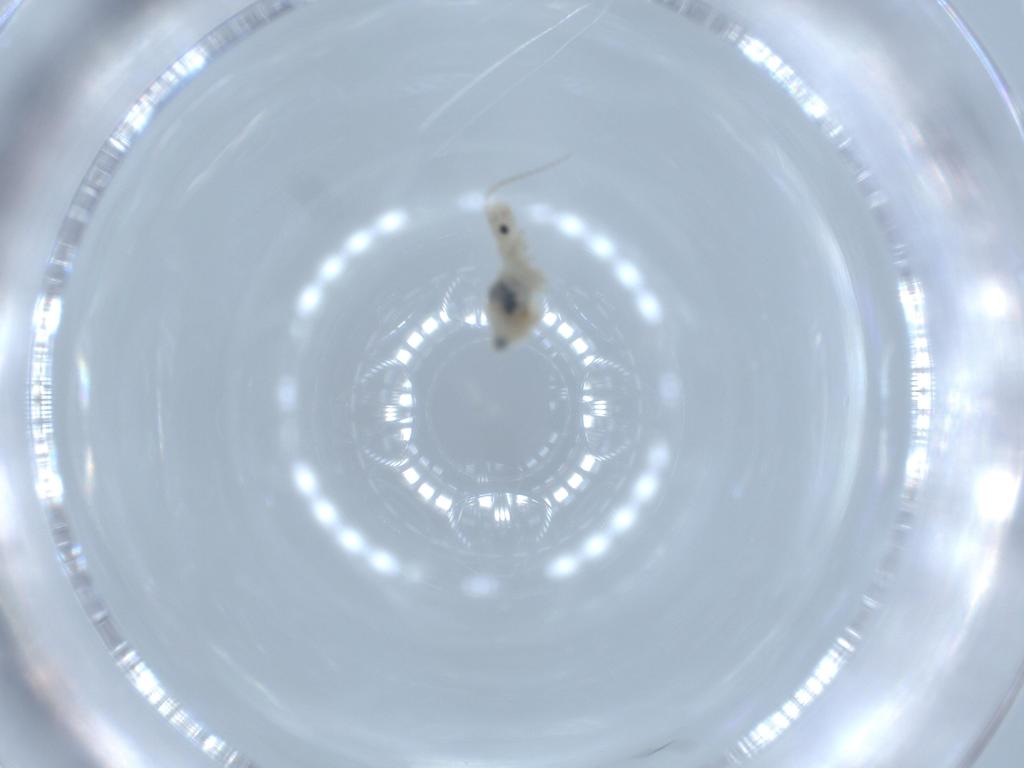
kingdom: Animalia
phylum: Arthropoda
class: Insecta
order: Psocodea
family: Caeciliusidae
